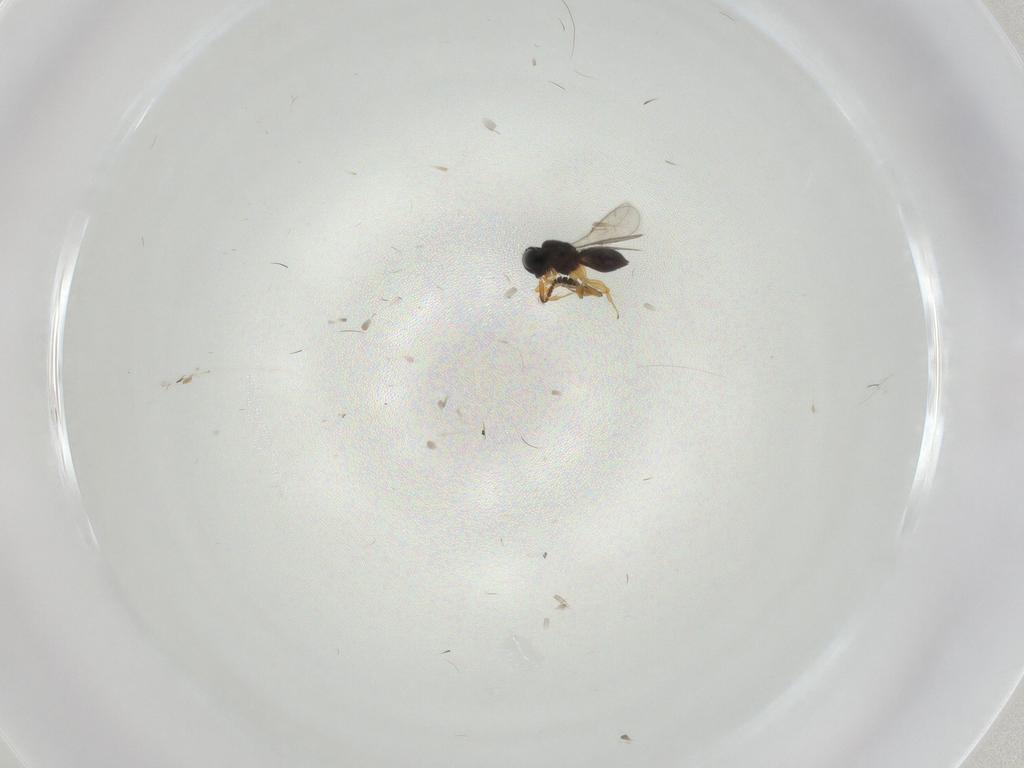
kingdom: Animalia
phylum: Arthropoda
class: Insecta
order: Hymenoptera
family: Scelionidae
